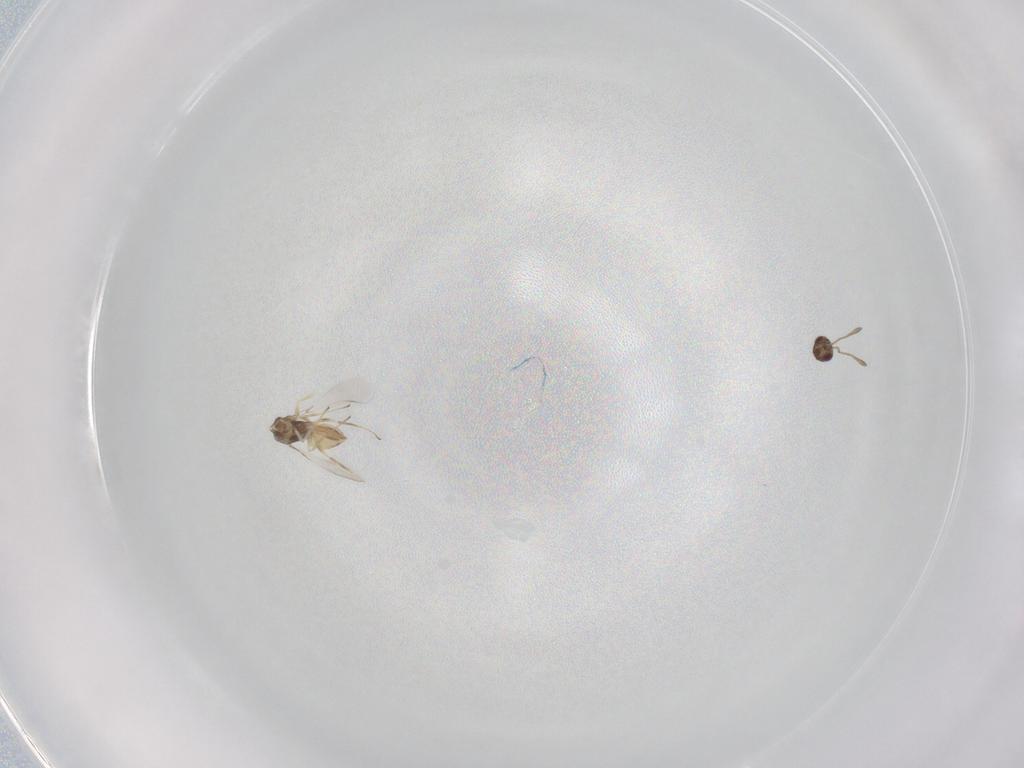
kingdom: Animalia
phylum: Arthropoda
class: Insecta
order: Hymenoptera
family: Mymaridae
